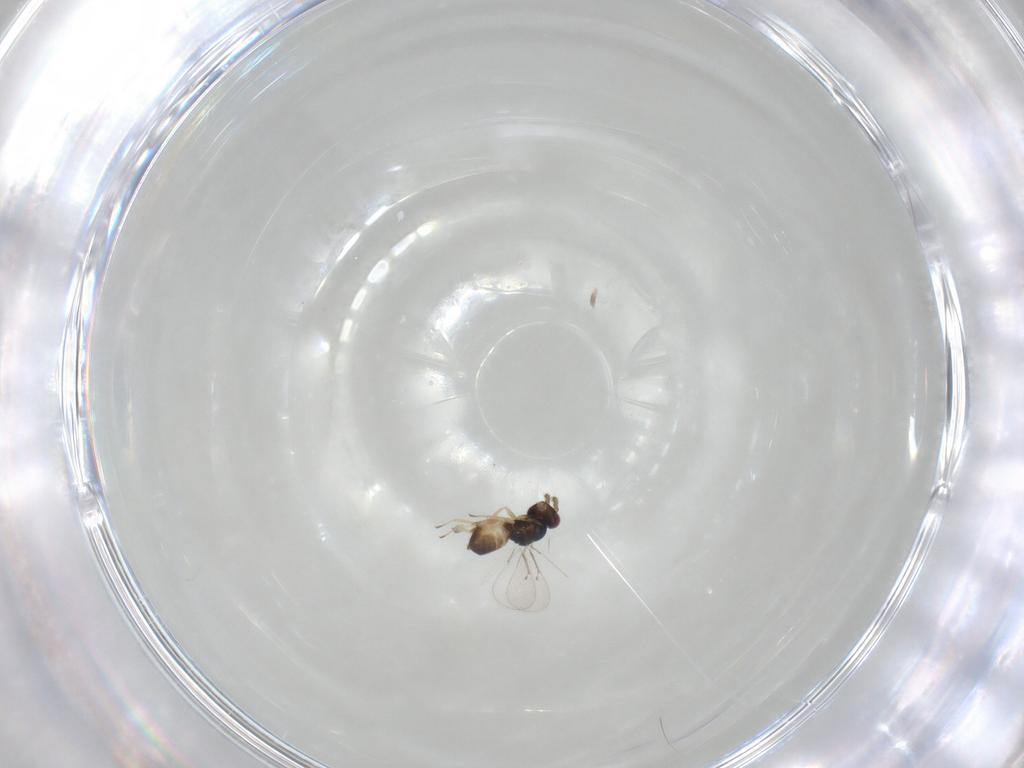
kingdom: Animalia
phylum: Arthropoda
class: Insecta
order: Hymenoptera
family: Eulophidae
